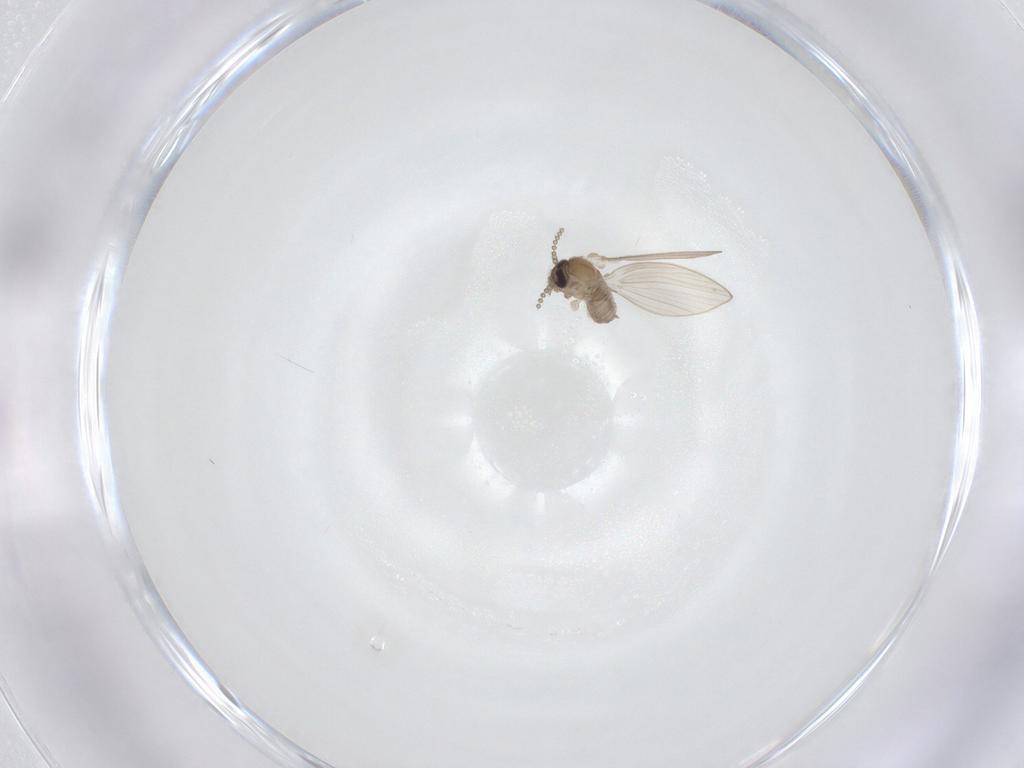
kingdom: Animalia
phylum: Arthropoda
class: Insecta
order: Diptera
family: Psychodidae
